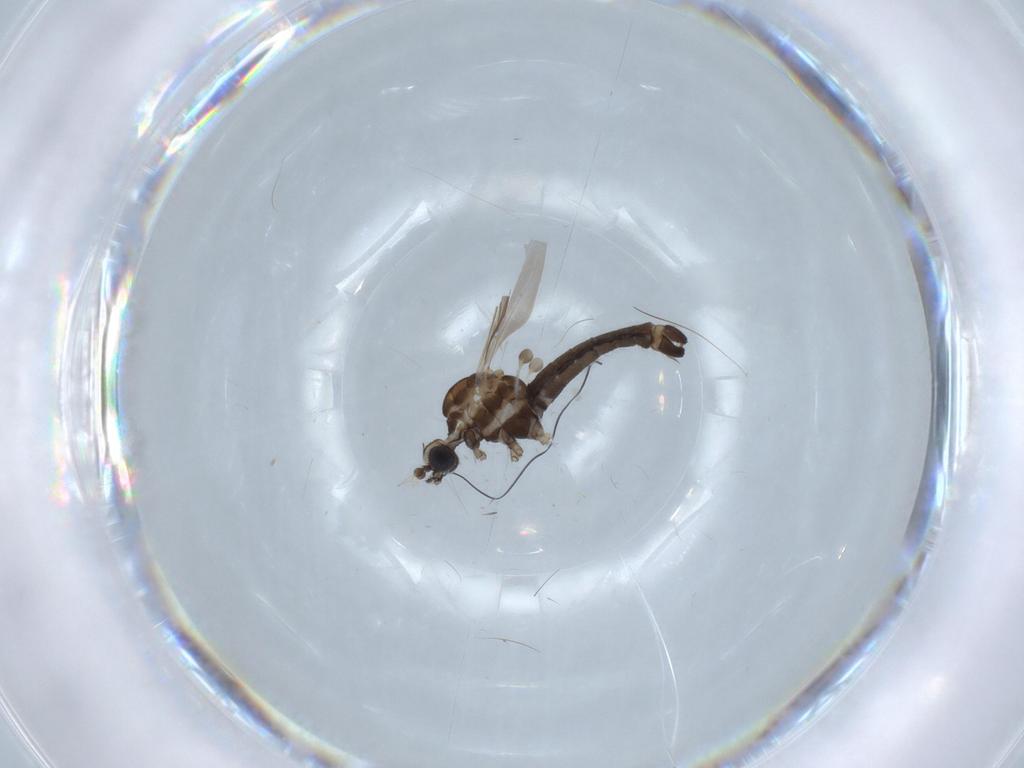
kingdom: Animalia
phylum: Arthropoda
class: Insecta
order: Diptera
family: Limoniidae
